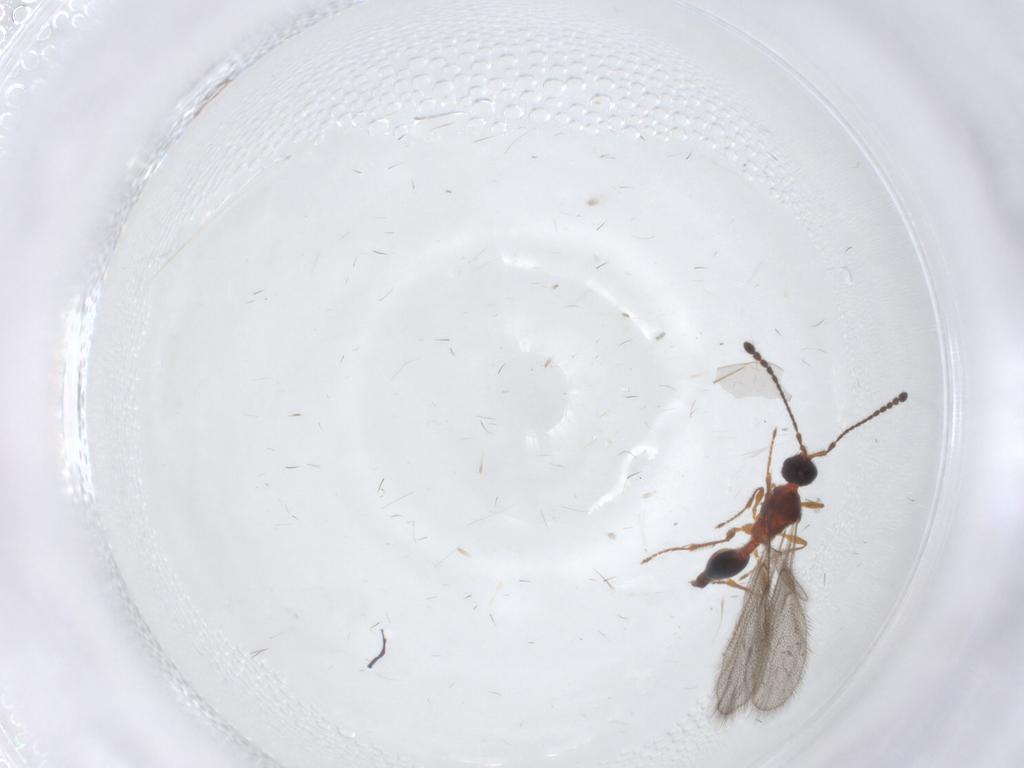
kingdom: Animalia
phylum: Arthropoda
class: Insecta
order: Hymenoptera
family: Diapriidae
